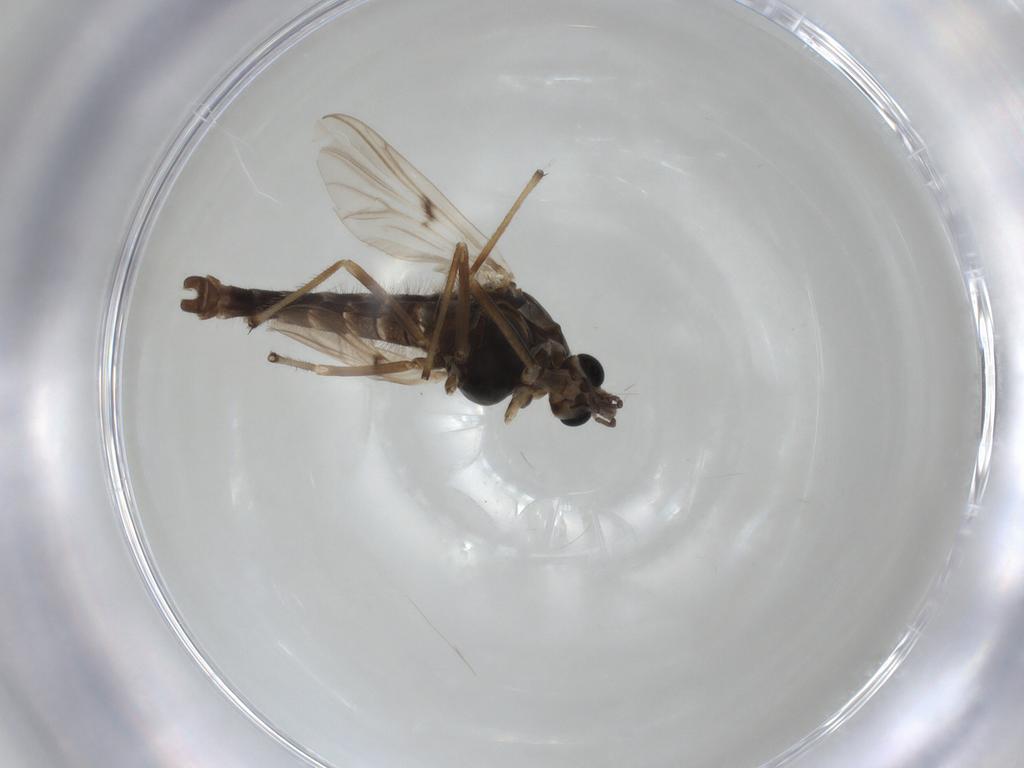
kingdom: Animalia
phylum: Arthropoda
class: Insecta
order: Diptera
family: Chironomidae
